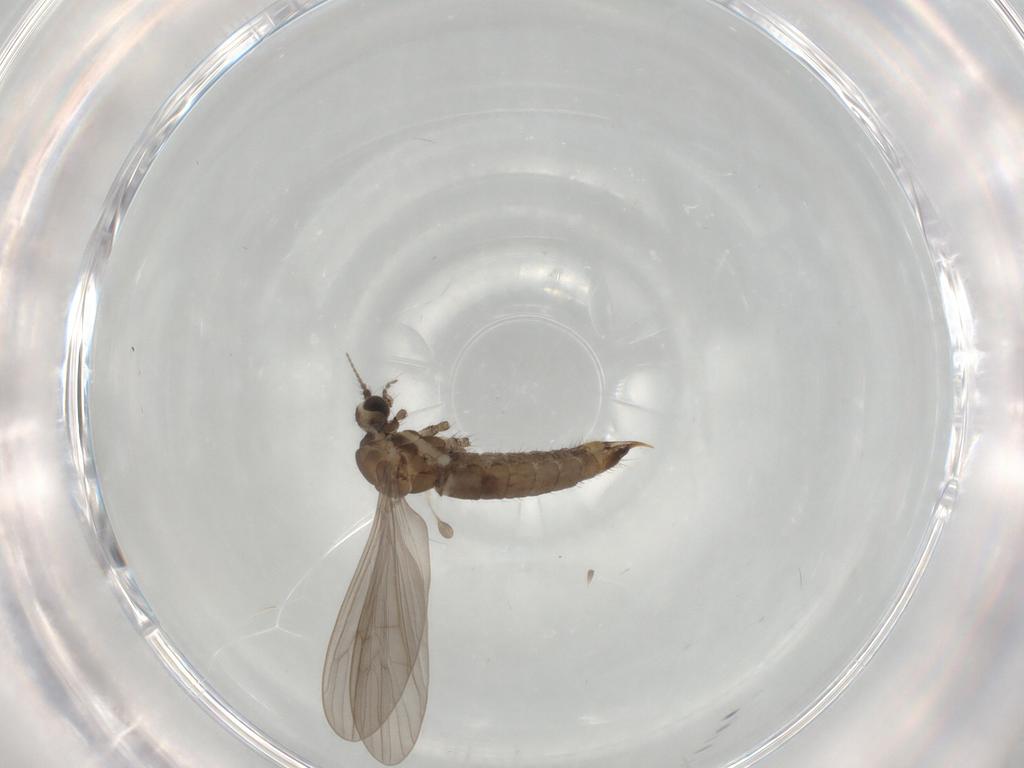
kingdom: Animalia
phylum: Arthropoda
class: Insecta
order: Diptera
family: Limoniidae
